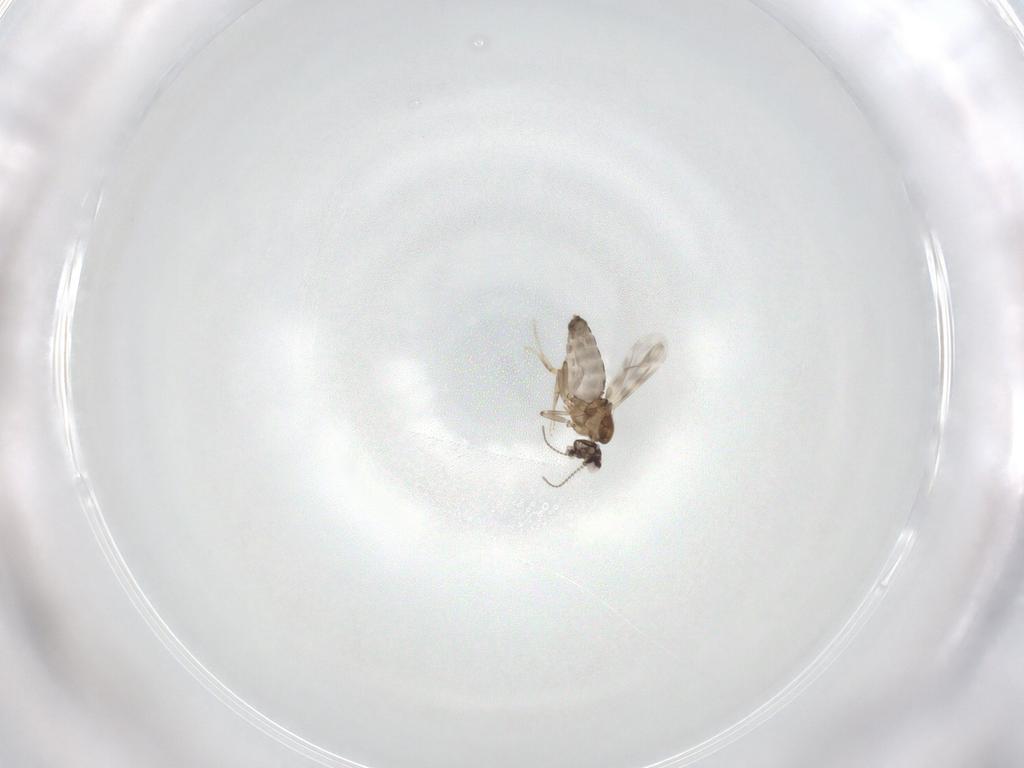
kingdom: Animalia
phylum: Arthropoda
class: Insecta
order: Diptera
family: Ceratopogonidae
